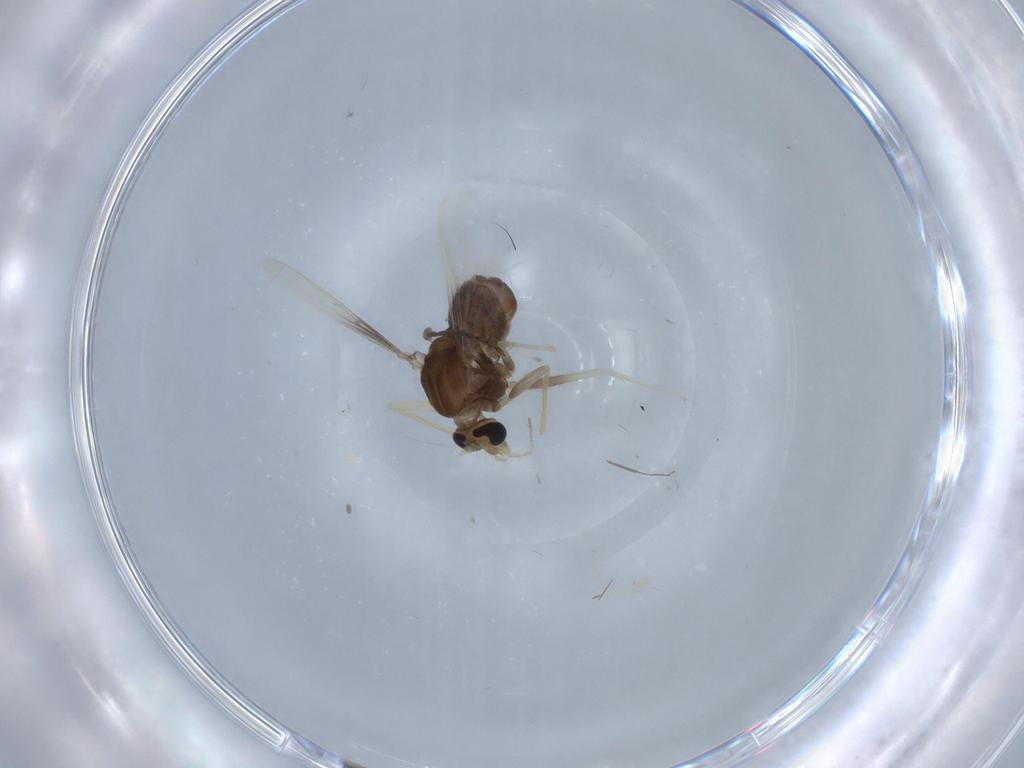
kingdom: Animalia
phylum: Arthropoda
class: Insecta
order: Diptera
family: Chironomidae
